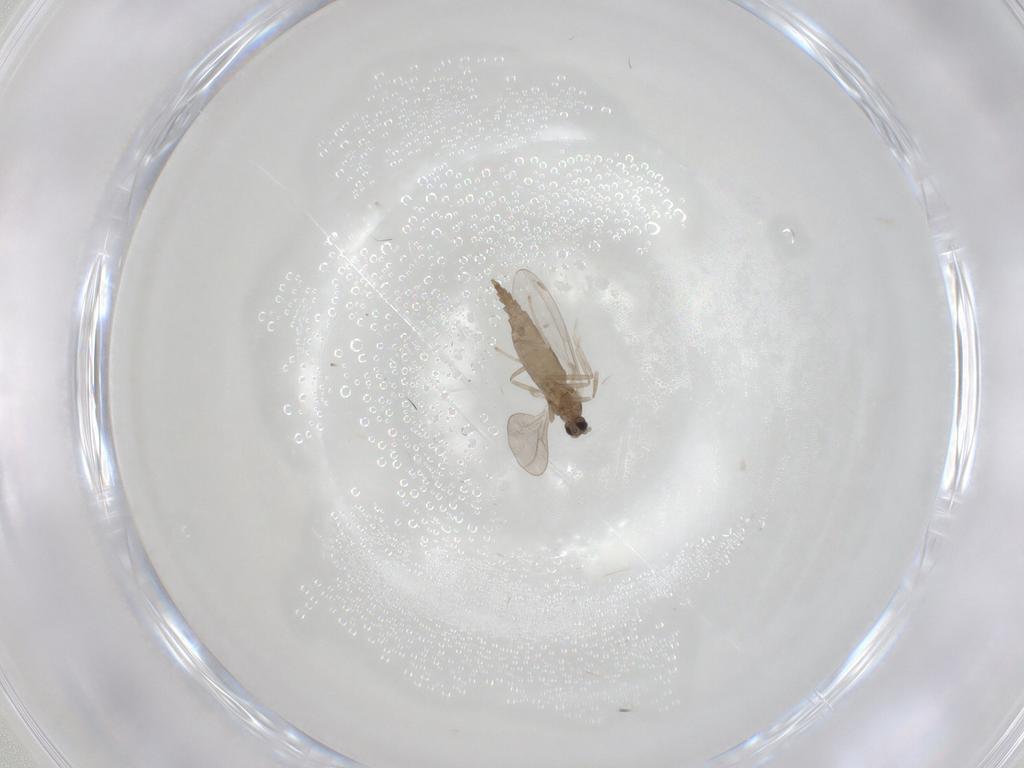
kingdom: Animalia
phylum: Arthropoda
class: Insecta
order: Diptera
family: Cecidomyiidae
